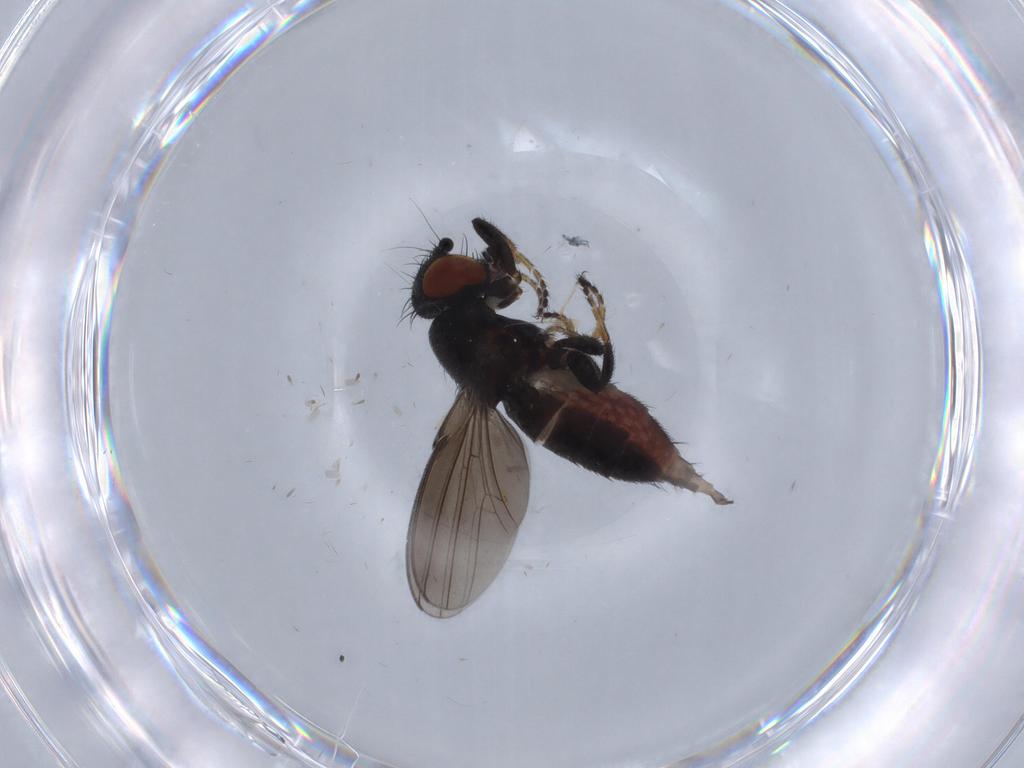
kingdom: Animalia
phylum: Arthropoda
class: Insecta
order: Diptera
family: Milichiidae
